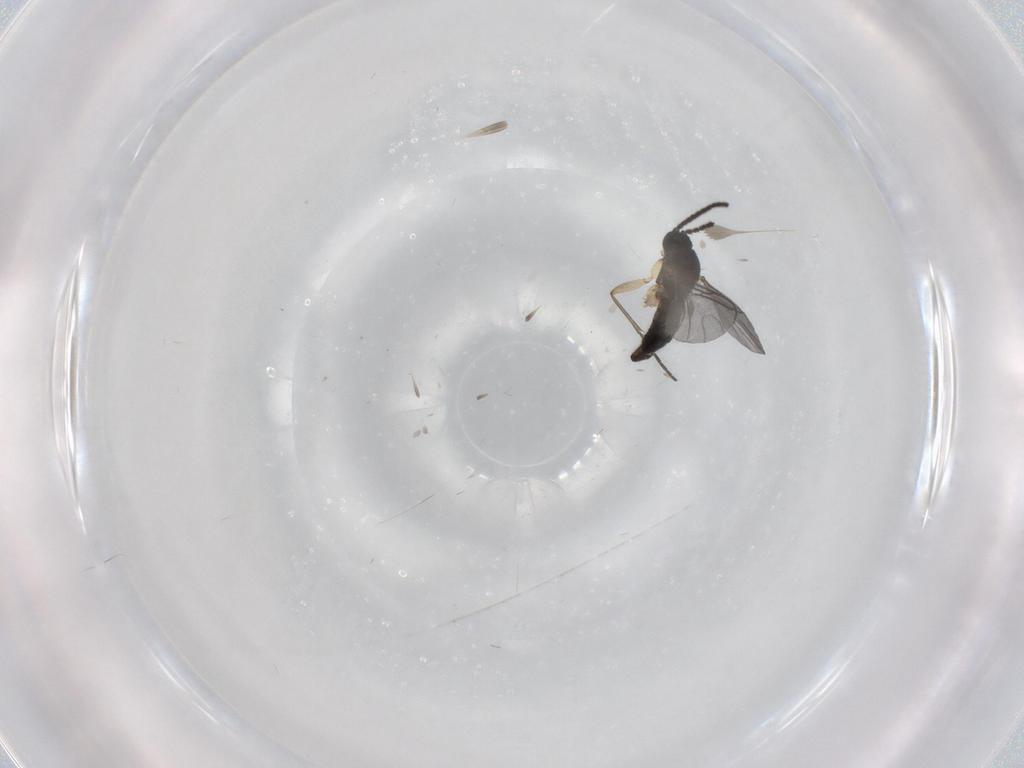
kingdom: Animalia
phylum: Arthropoda
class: Insecta
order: Diptera
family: Sciaridae
